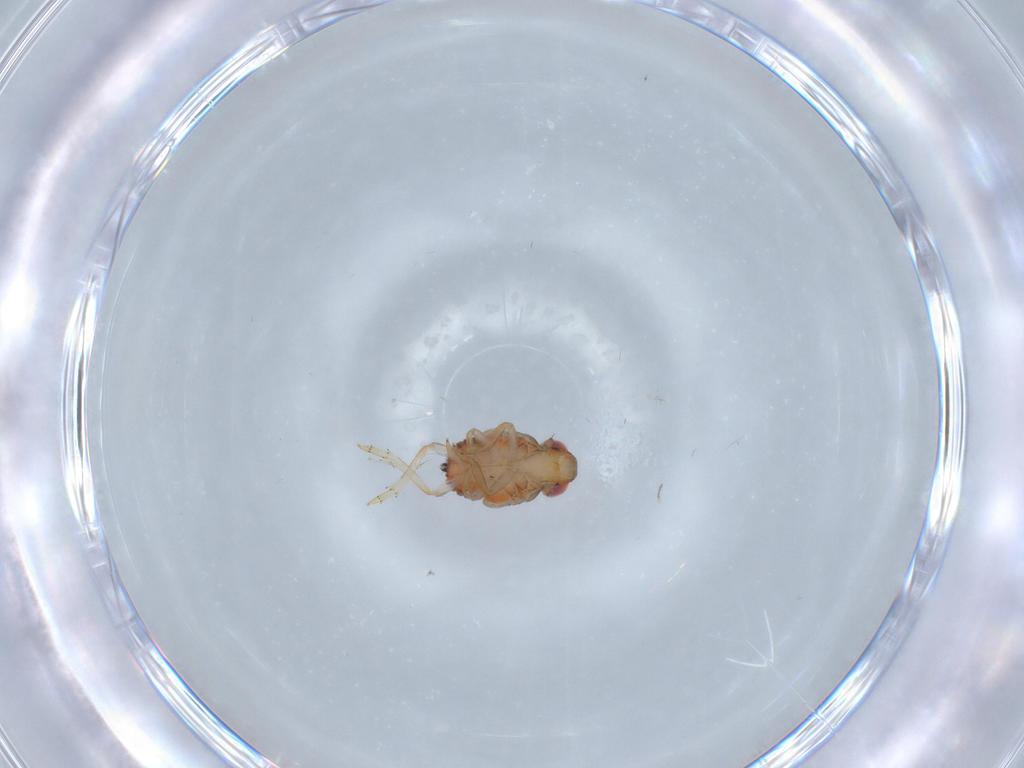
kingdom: Animalia
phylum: Arthropoda
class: Insecta
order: Hemiptera
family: Issidae
